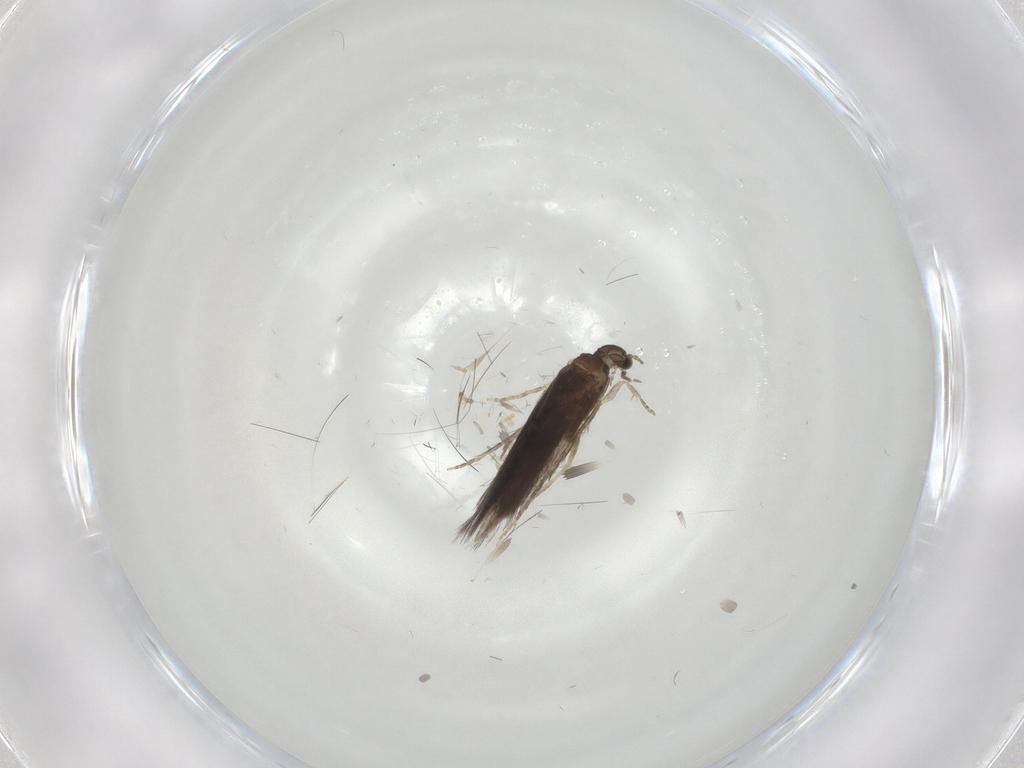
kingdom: Animalia
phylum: Arthropoda
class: Insecta
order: Trichoptera
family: Hydroptilidae
